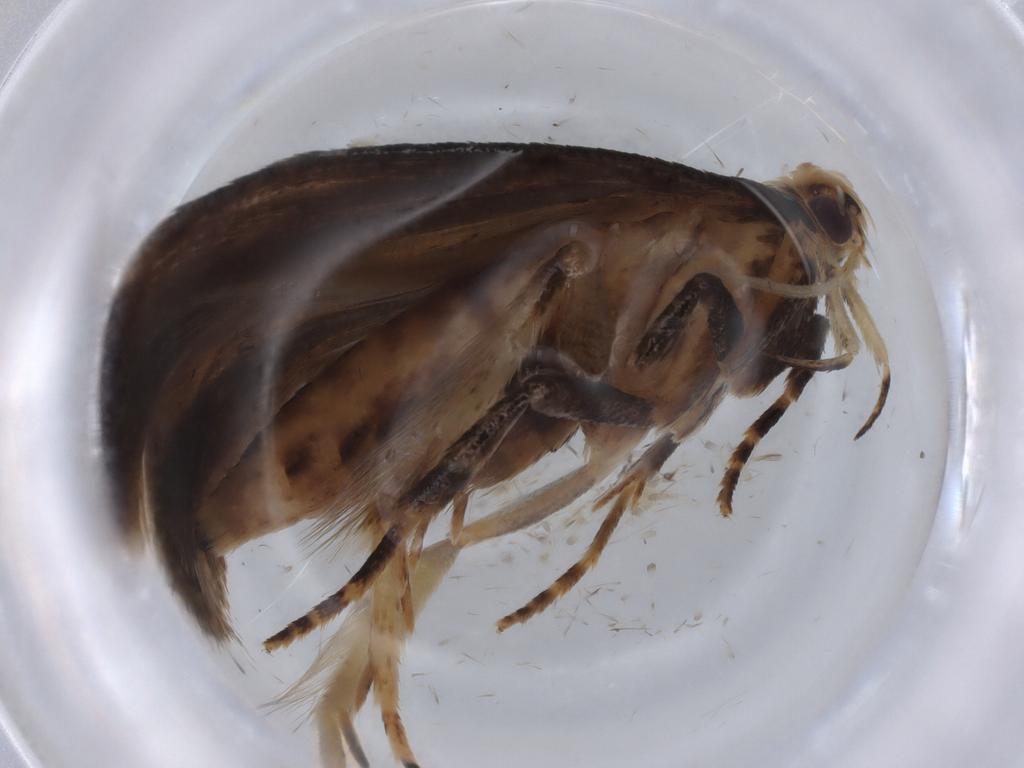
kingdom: Animalia
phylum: Arthropoda
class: Insecta
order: Lepidoptera
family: Gelechiidae
